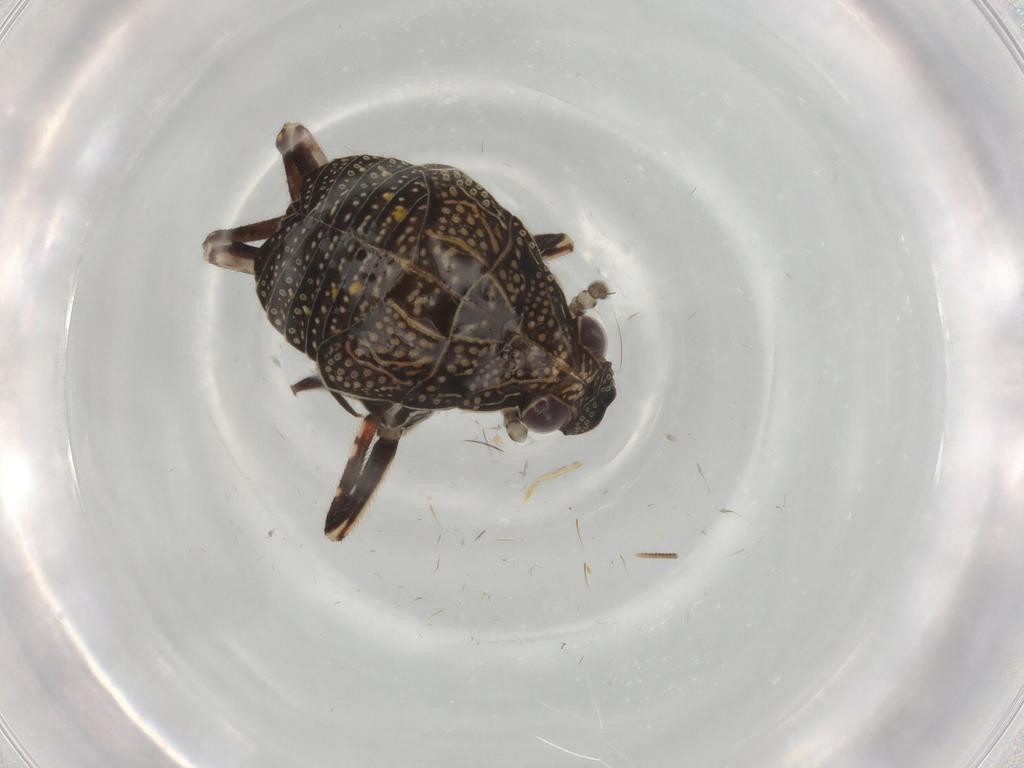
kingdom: Animalia
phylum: Arthropoda
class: Insecta
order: Hemiptera
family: Fulgoridae
